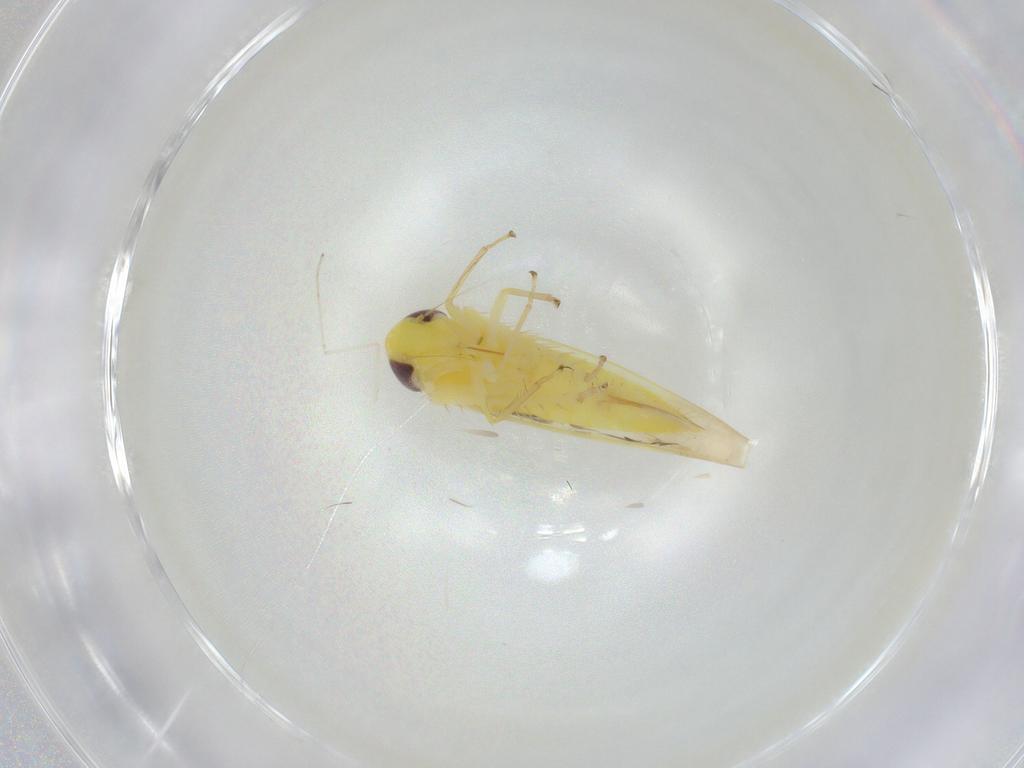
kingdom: Animalia
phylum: Arthropoda
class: Insecta
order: Hemiptera
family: Cicadellidae
